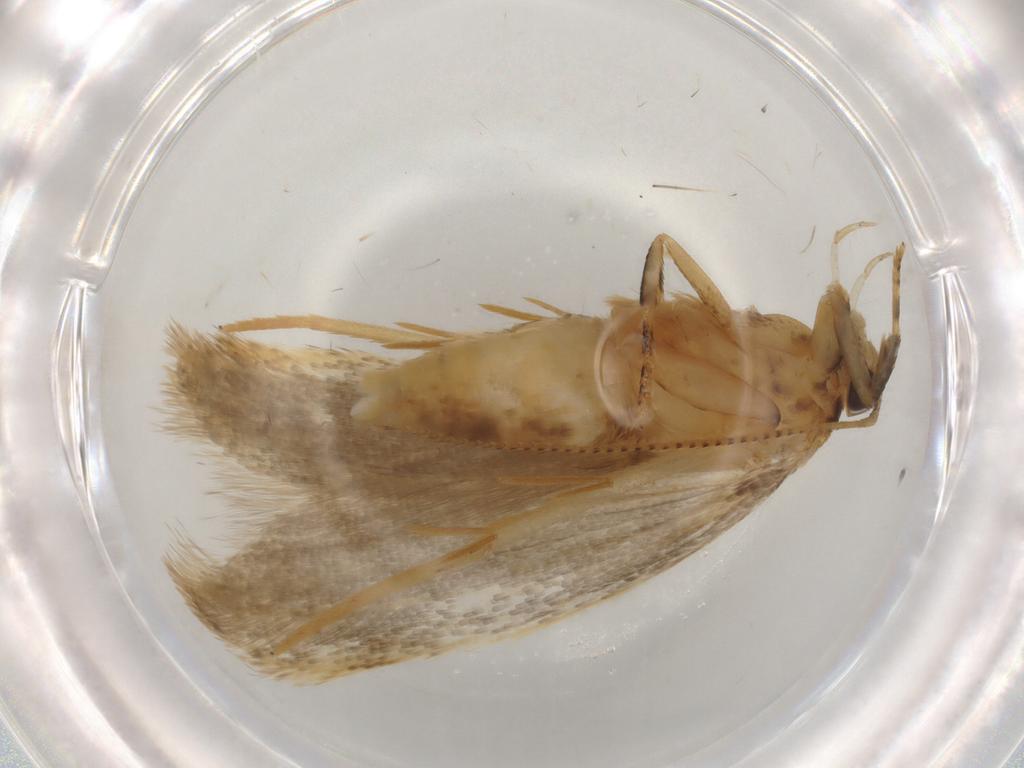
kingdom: Animalia
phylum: Arthropoda
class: Insecta
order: Lepidoptera
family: Gelechiidae
